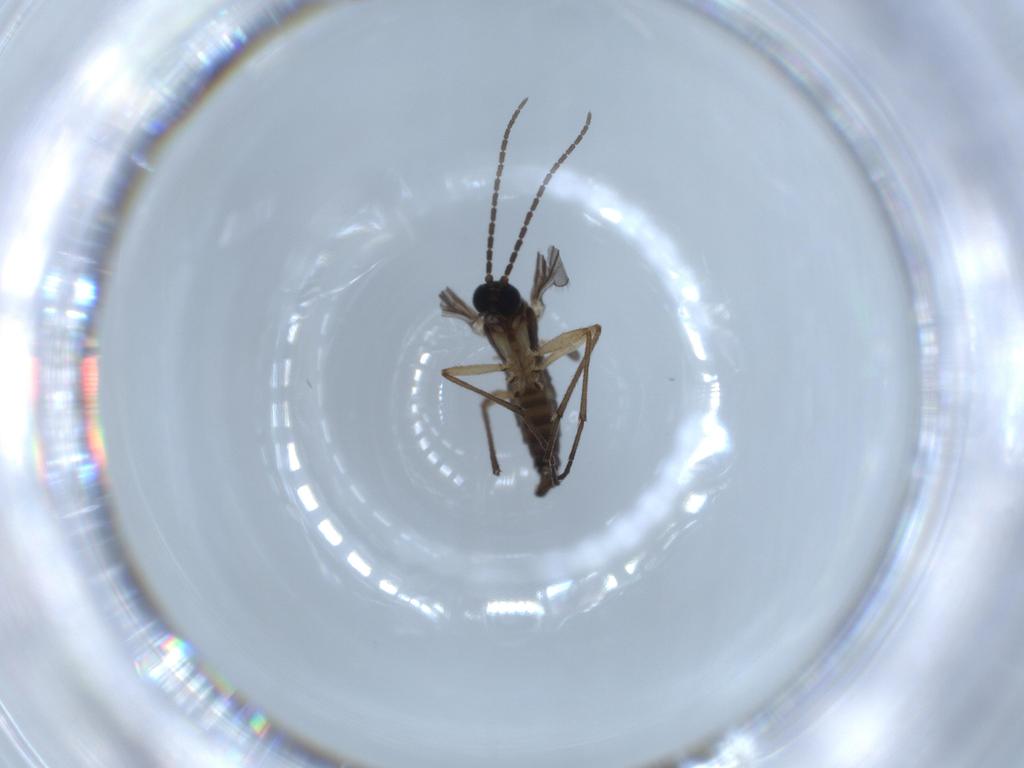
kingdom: Animalia
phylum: Arthropoda
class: Insecta
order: Diptera
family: Sciaridae
